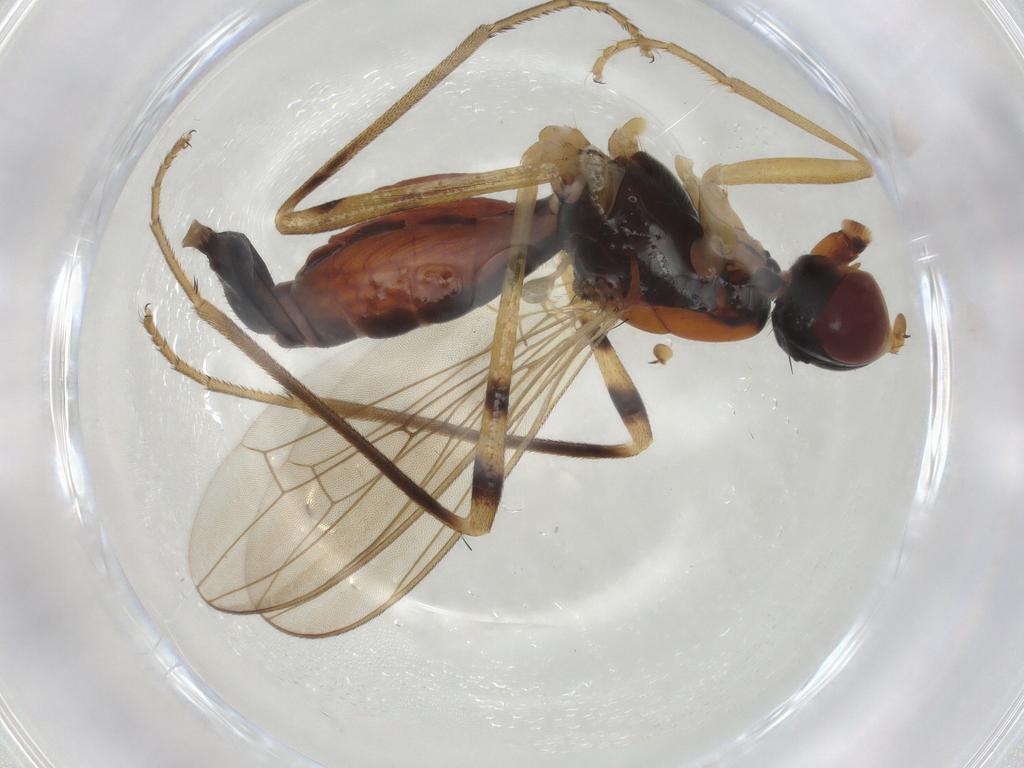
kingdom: Animalia
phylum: Arthropoda
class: Insecta
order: Diptera
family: Micropezidae
